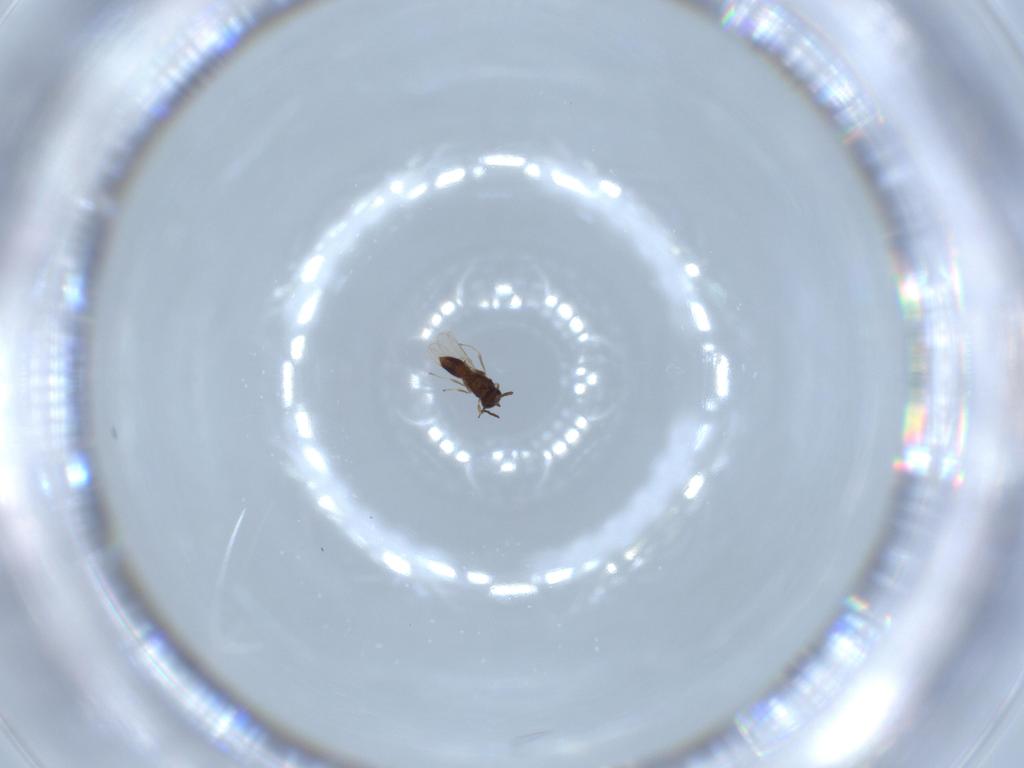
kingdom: Animalia
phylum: Arthropoda
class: Insecta
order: Hymenoptera
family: Scelionidae
